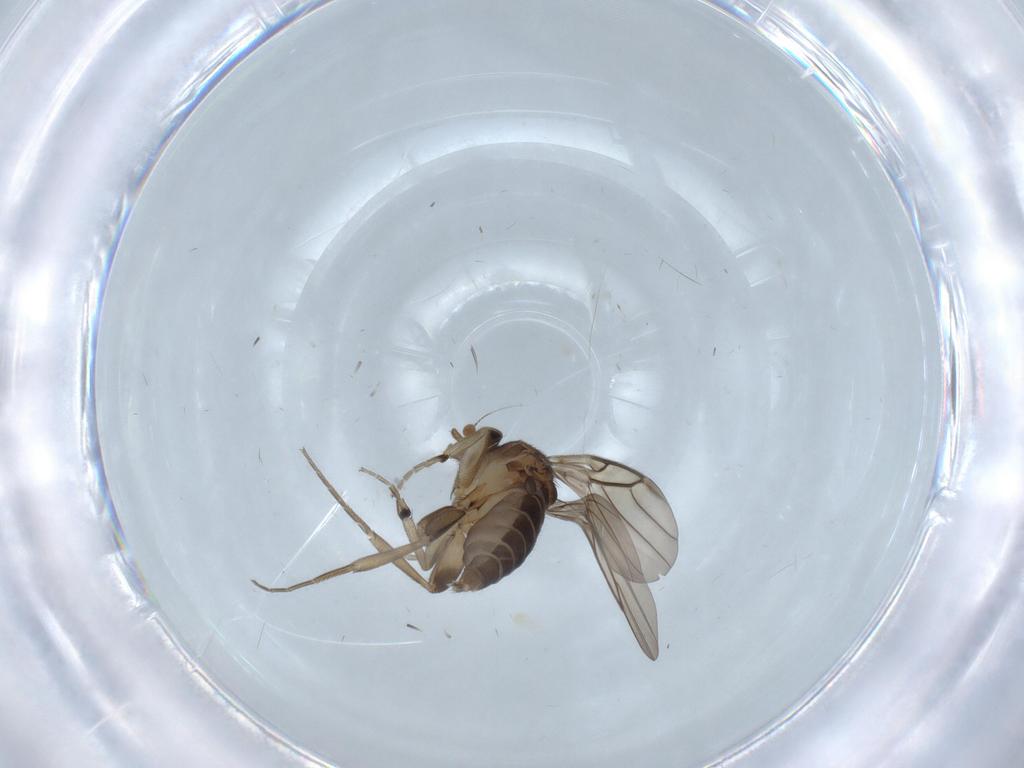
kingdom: Animalia
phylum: Arthropoda
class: Insecta
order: Diptera
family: Phoridae
